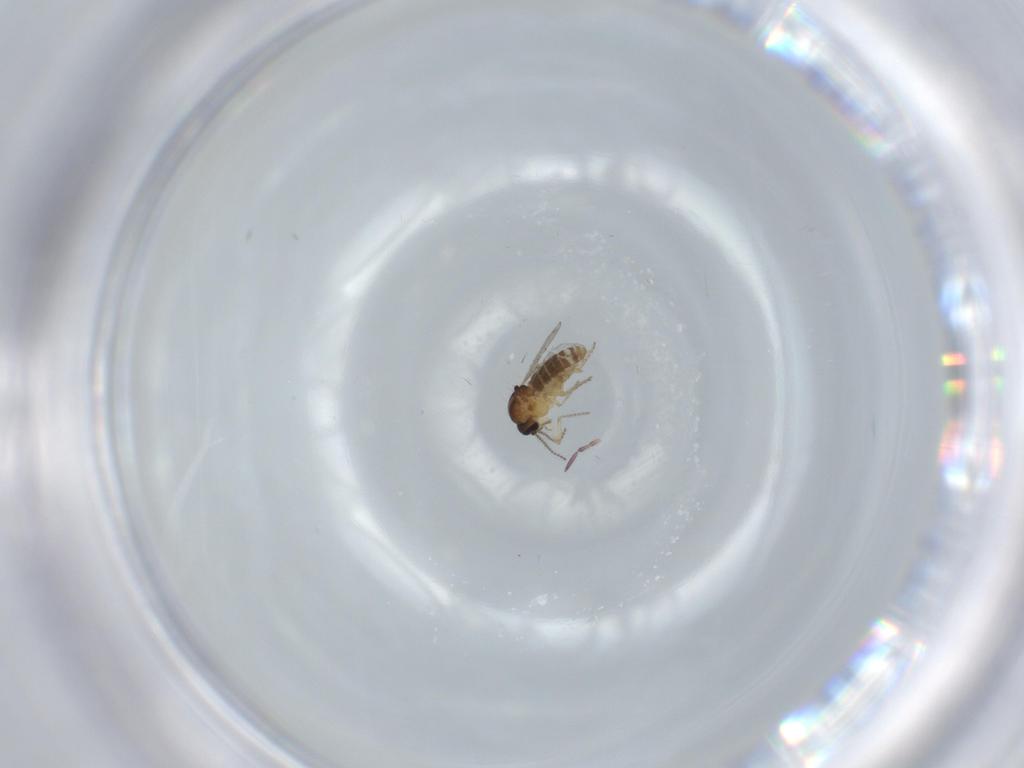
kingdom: Animalia
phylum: Arthropoda
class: Insecta
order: Diptera
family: Ceratopogonidae
